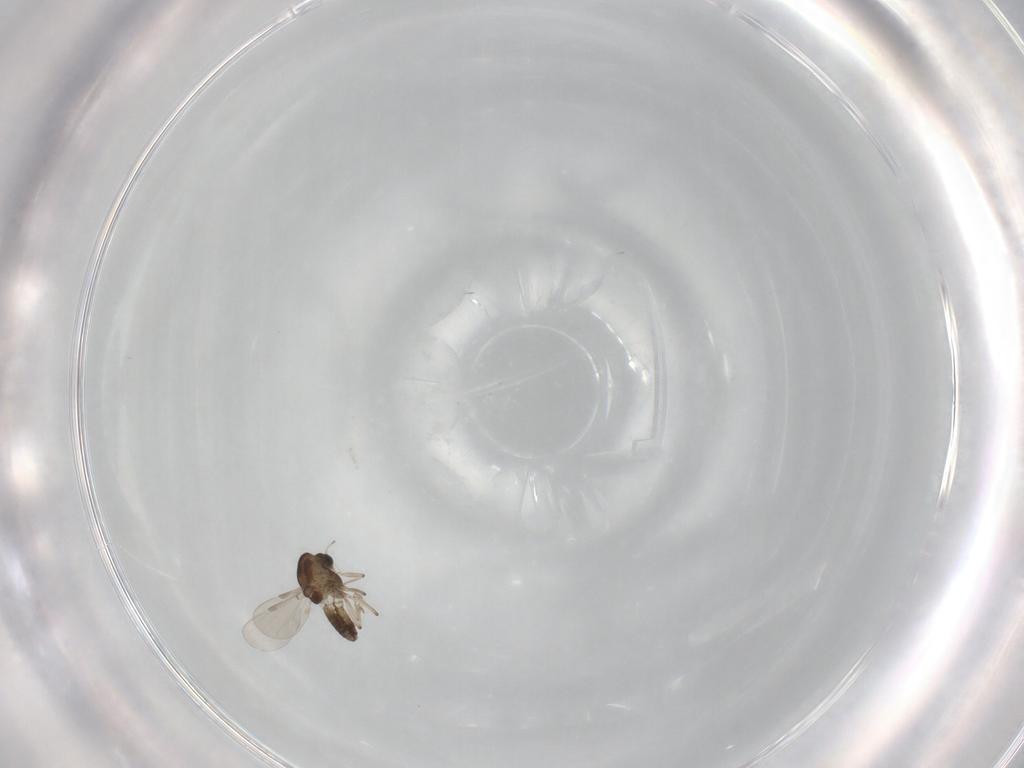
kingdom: Animalia
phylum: Arthropoda
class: Insecta
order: Diptera
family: Chironomidae
